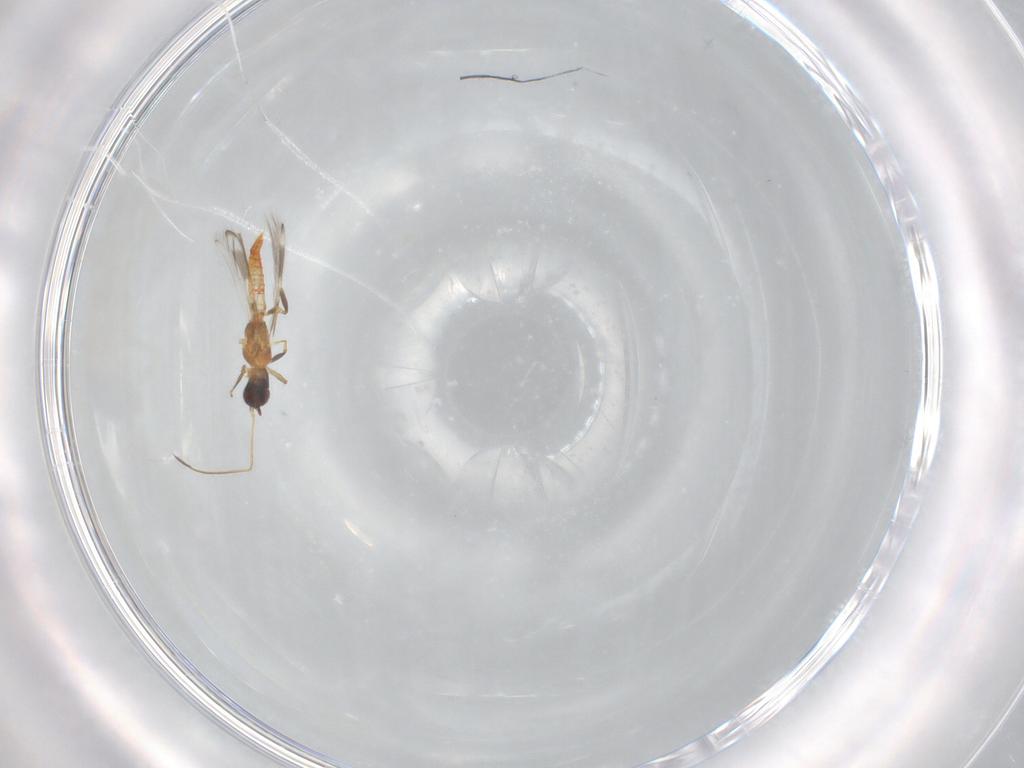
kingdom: Animalia
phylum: Arthropoda
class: Insecta
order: Thysanoptera
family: Aeolothripidae
